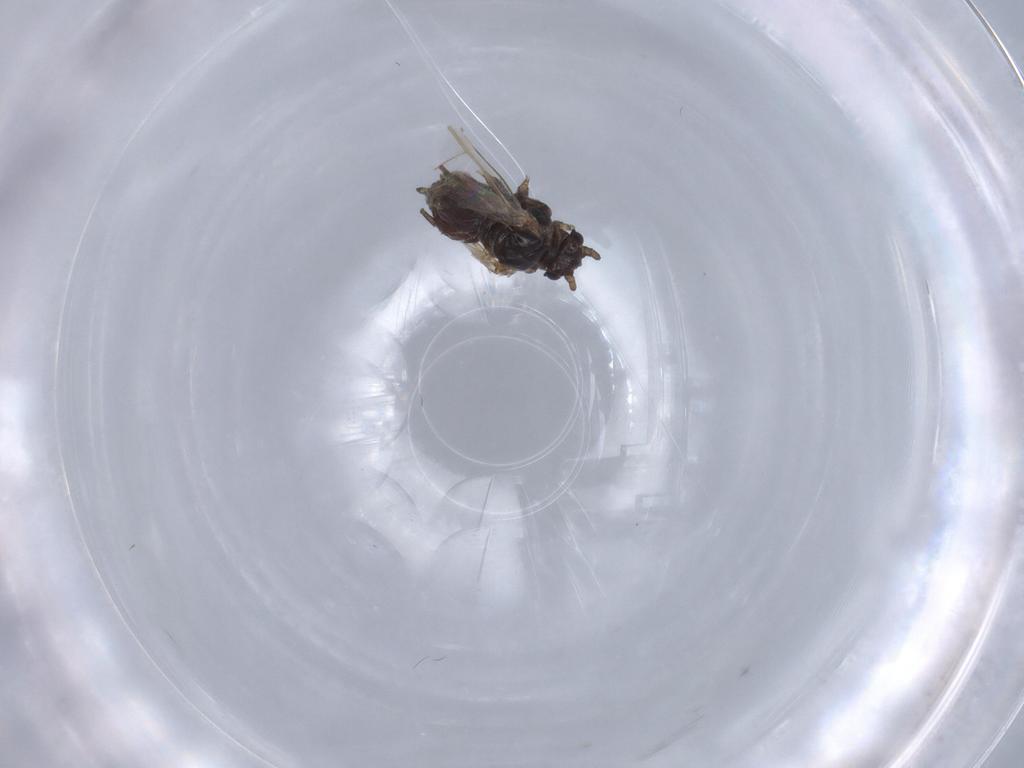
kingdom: Animalia
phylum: Arthropoda
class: Insecta
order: Hemiptera
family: Aphididae
